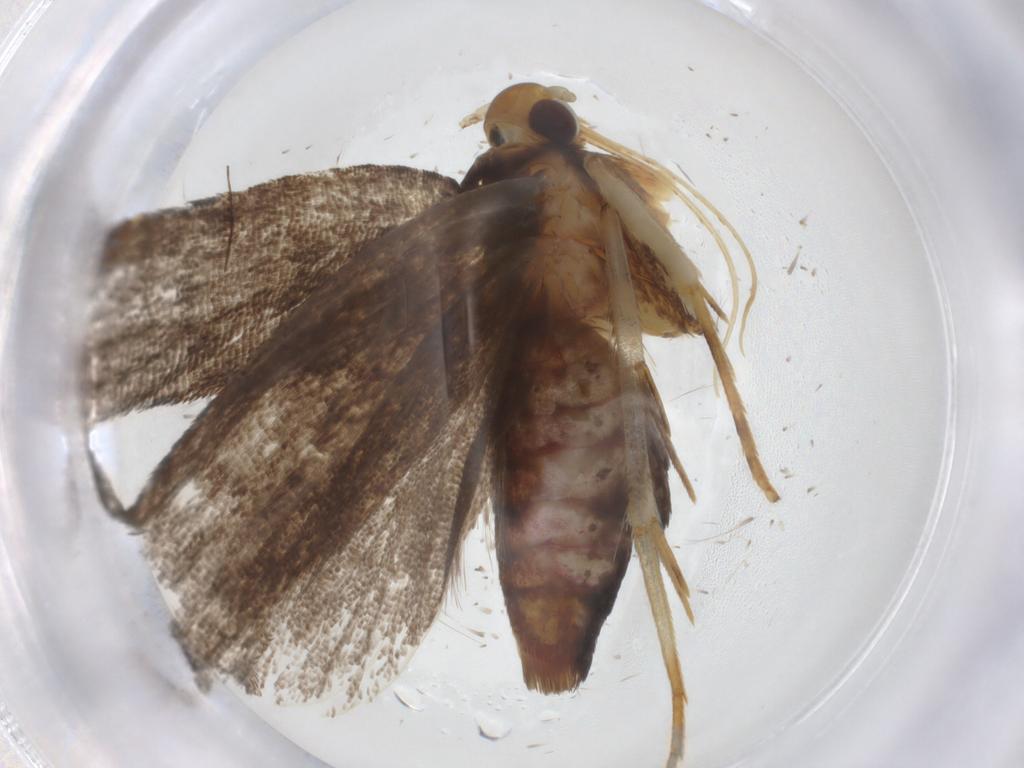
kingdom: Animalia
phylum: Arthropoda
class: Insecta
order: Lepidoptera
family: Lecithoceridae
